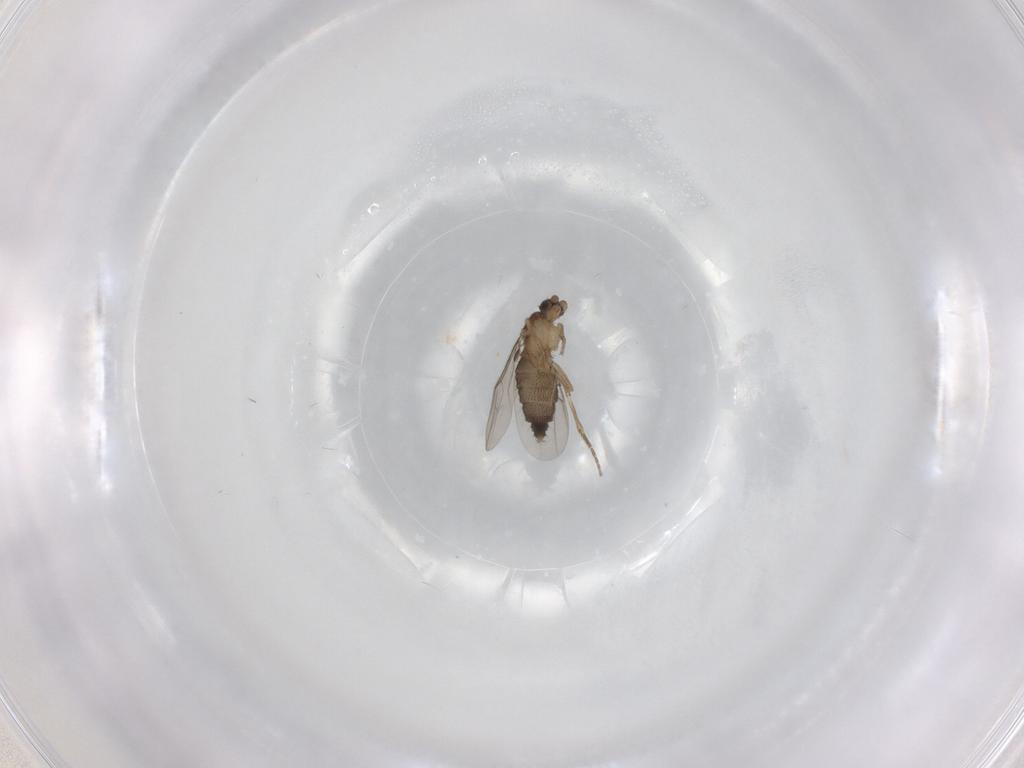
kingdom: Animalia
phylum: Arthropoda
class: Insecta
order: Diptera
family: Phoridae
